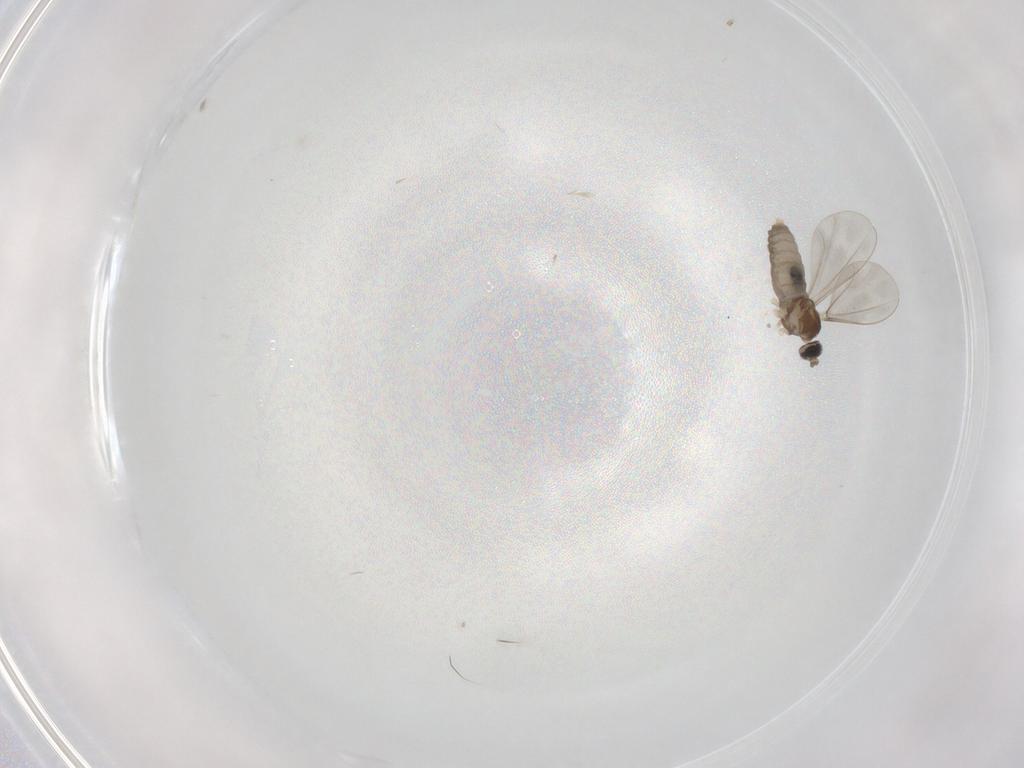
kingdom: Animalia
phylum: Arthropoda
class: Insecta
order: Diptera
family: Cecidomyiidae
